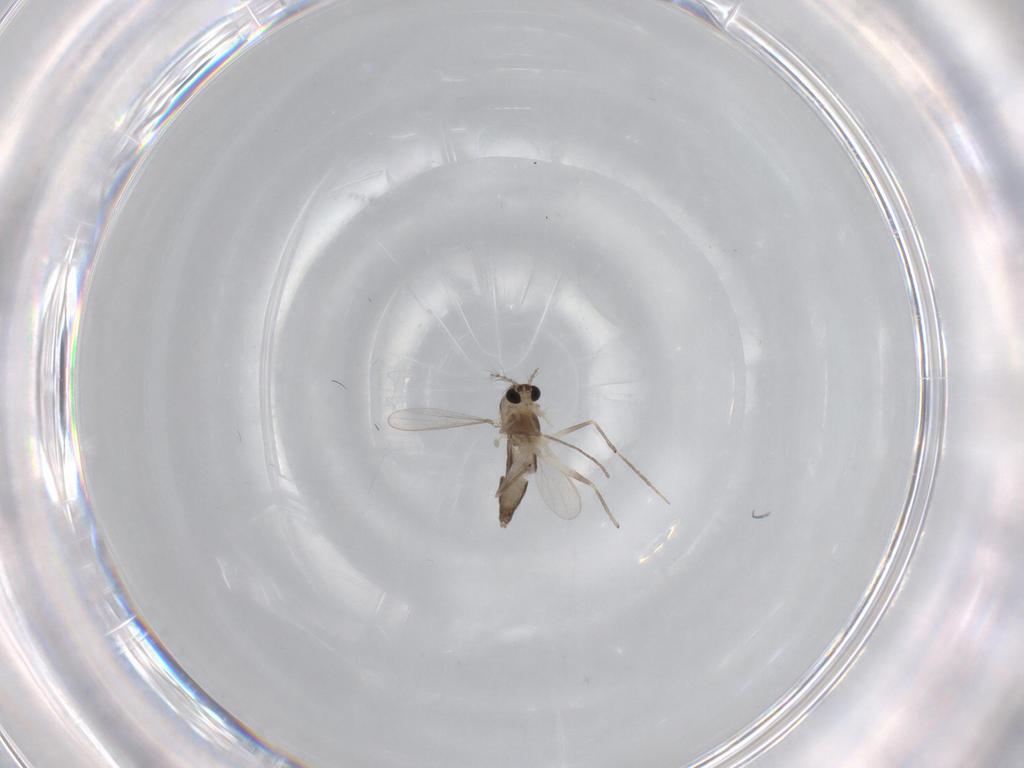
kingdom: Animalia
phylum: Arthropoda
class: Insecta
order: Diptera
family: Chironomidae
